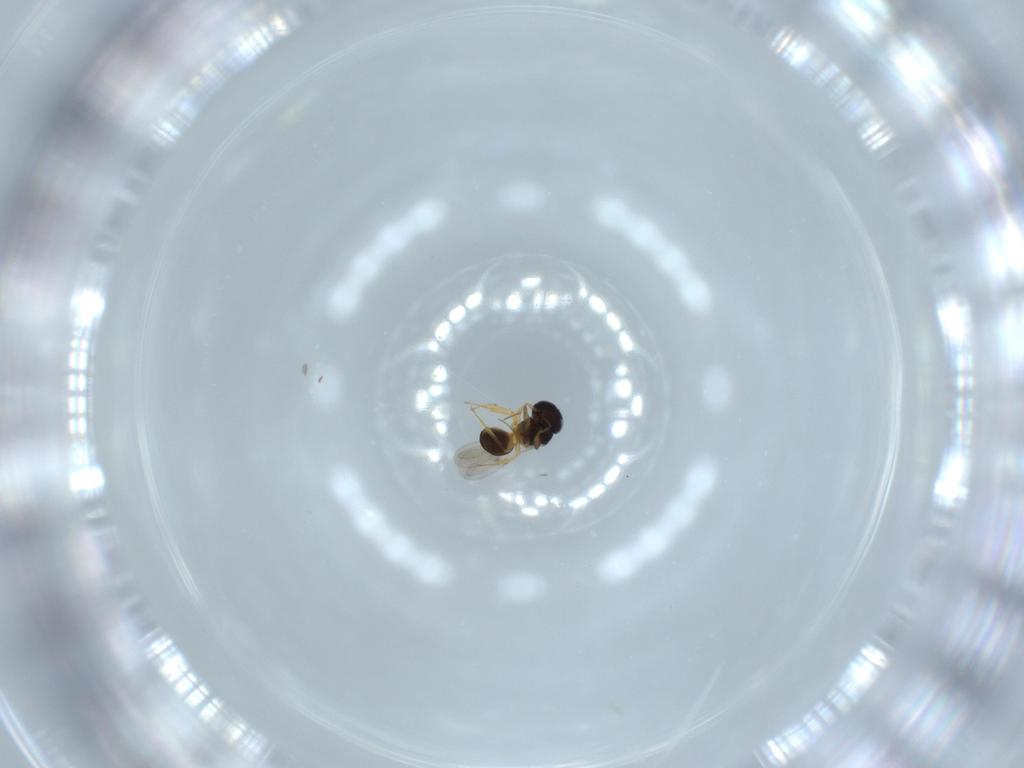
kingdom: Animalia
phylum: Arthropoda
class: Insecta
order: Hymenoptera
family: Scelionidae
